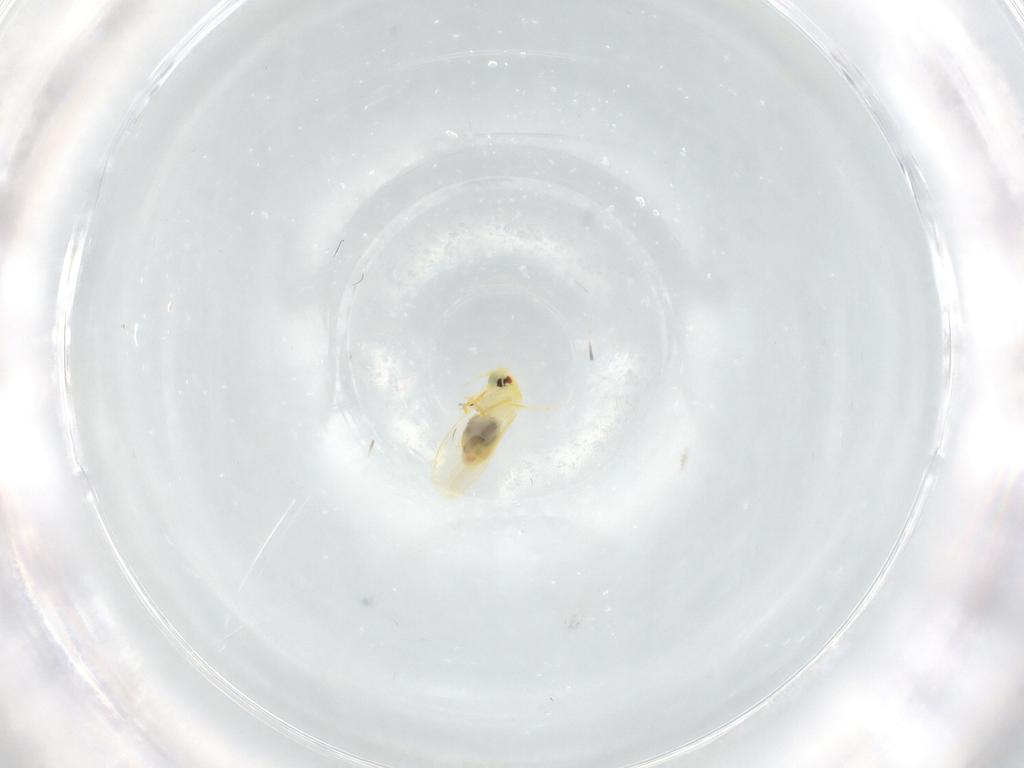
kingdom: Animalia
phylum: Arthropoda
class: Insecta
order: Hemiptera
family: Aleyrodidae
